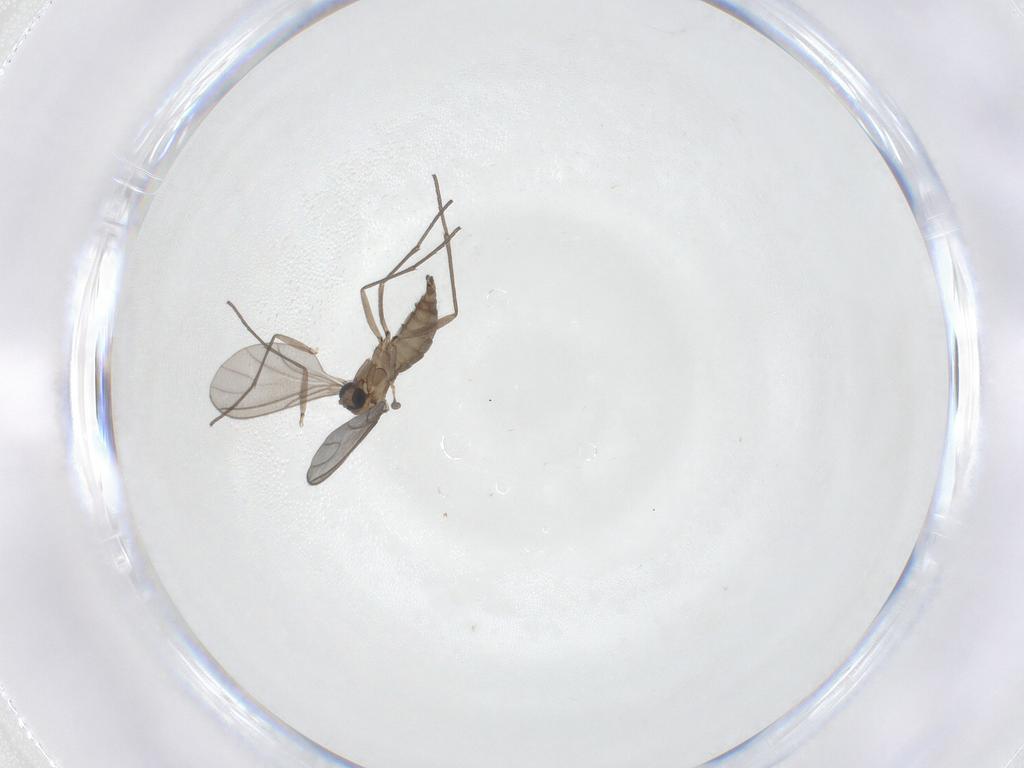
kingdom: Animalia
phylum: Arthropoda
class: Insecta
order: Diptera
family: Sciaridae
